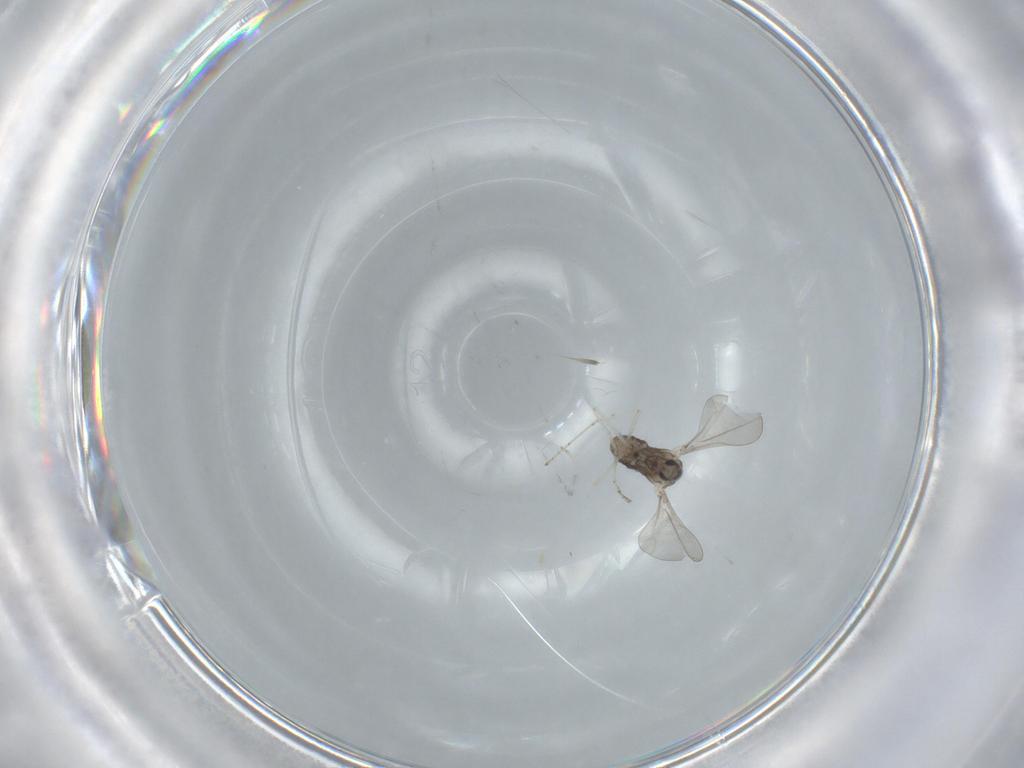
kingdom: Animalia
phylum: Arthropoda
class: Insecta
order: Diptera
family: Cecidomyiidae
